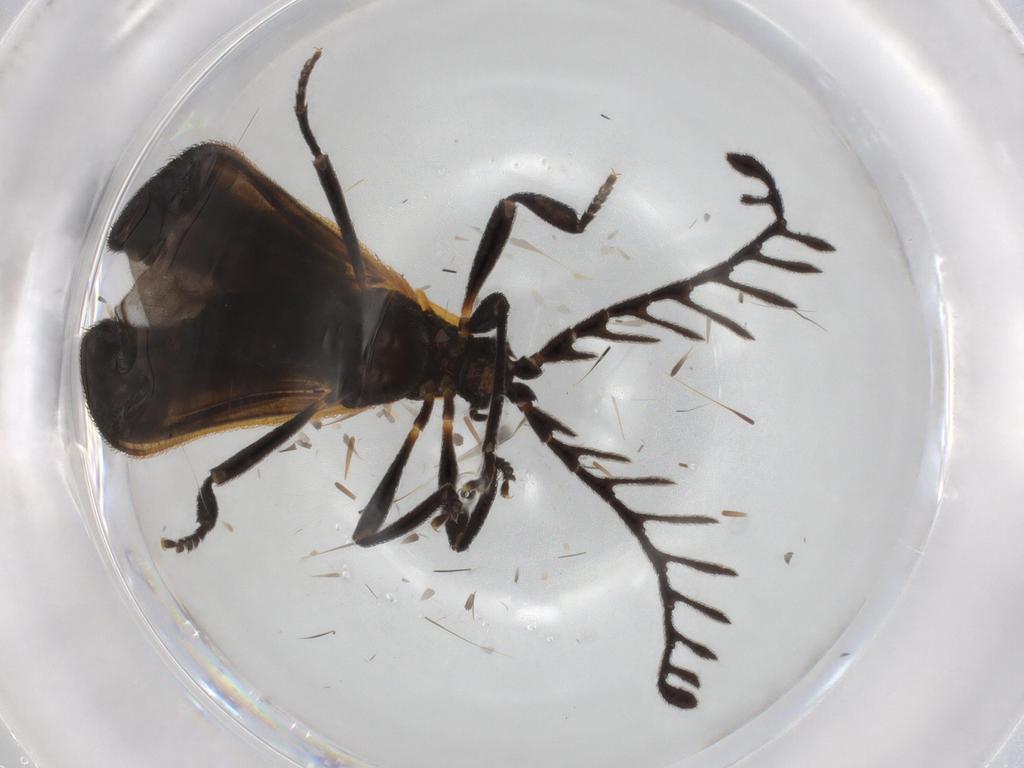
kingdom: Animalia
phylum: Arthropoda
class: Insecta
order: Coleoptera
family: Lycidae
